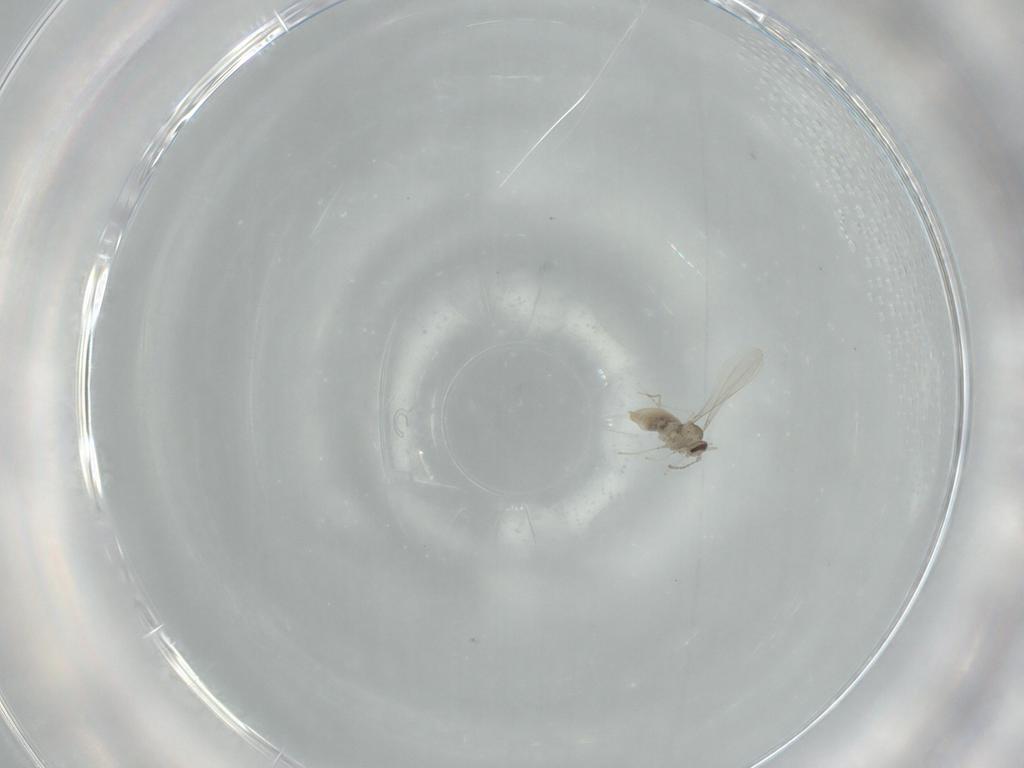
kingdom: Animalia
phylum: Arthropoda
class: Insecta
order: Diptera
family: Cecidomyiidae
